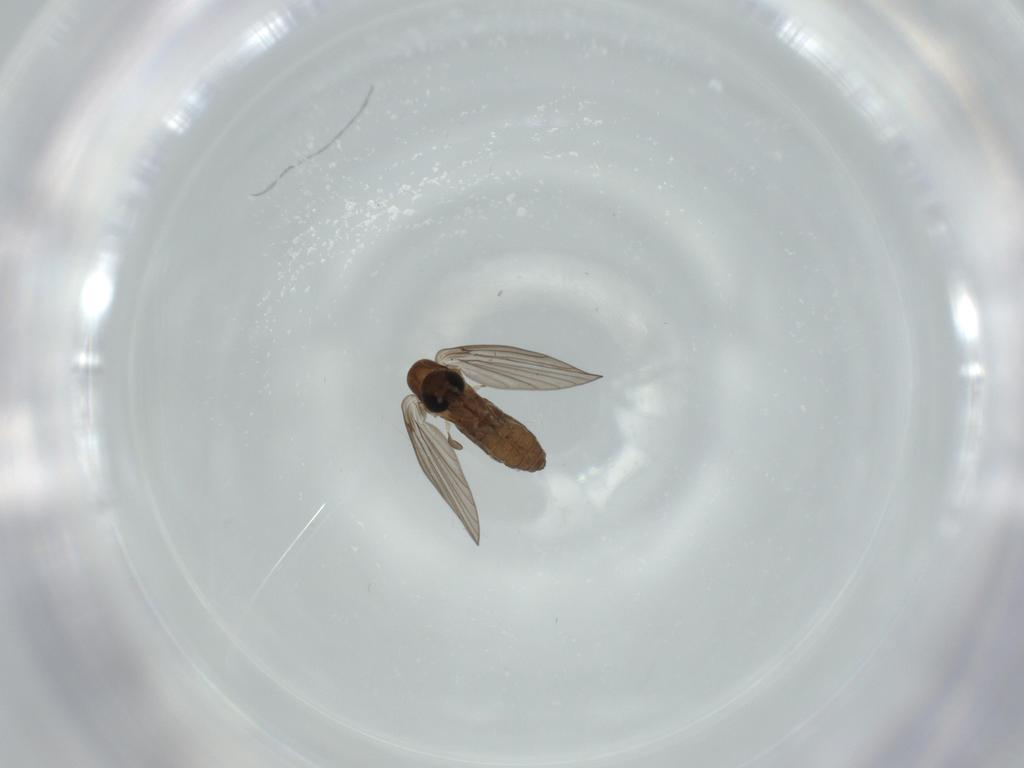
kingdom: Animalia
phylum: Arthropoda
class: Insecta
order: Diptera
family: Psychodidae
